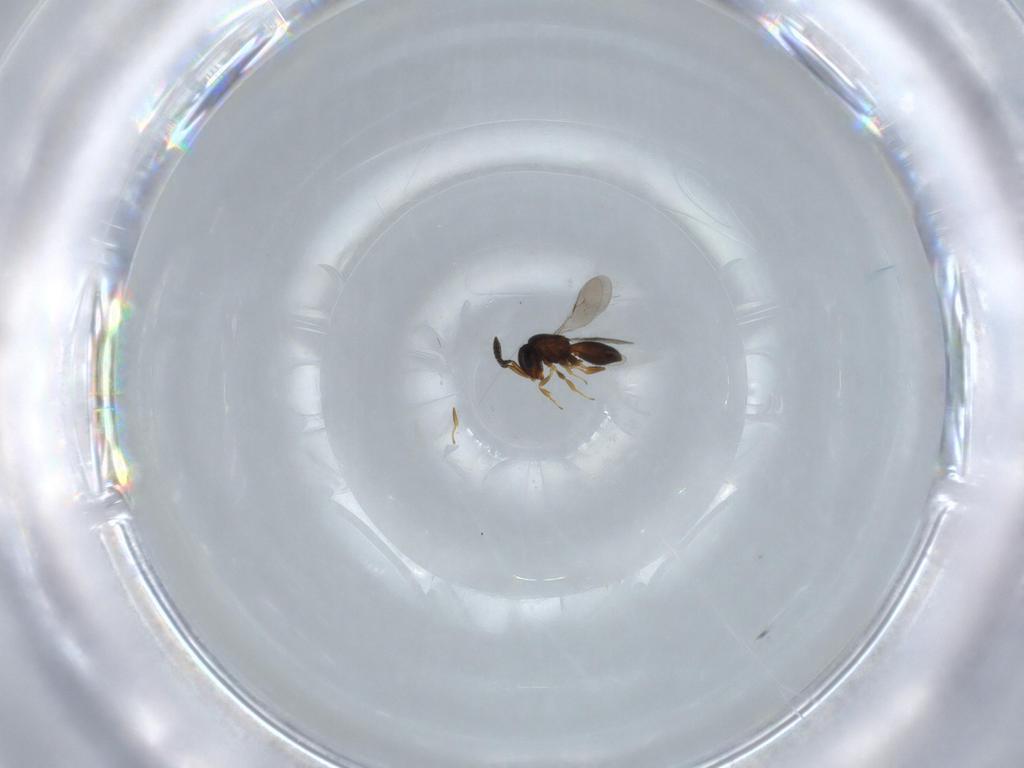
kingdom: Animalia
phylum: Arthropoda
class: Insecta
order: Hymenoptera
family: Scelionidae
